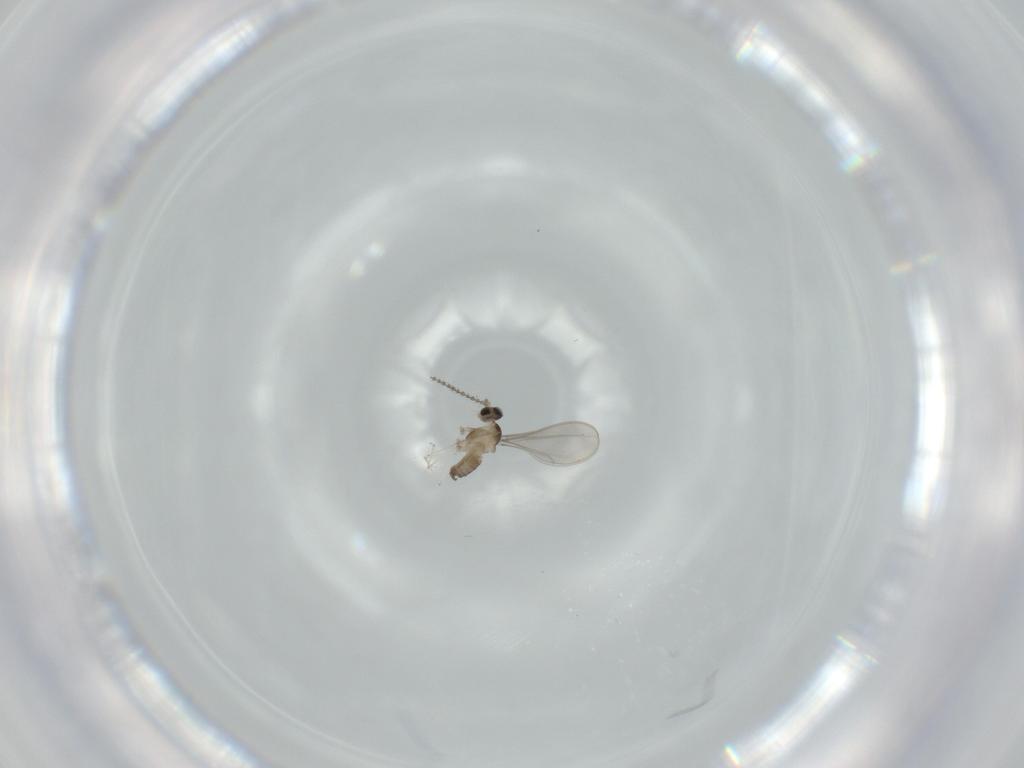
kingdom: Animalia
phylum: Arthropoda
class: Insecta
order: Diptera
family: Cecidomyiidae
